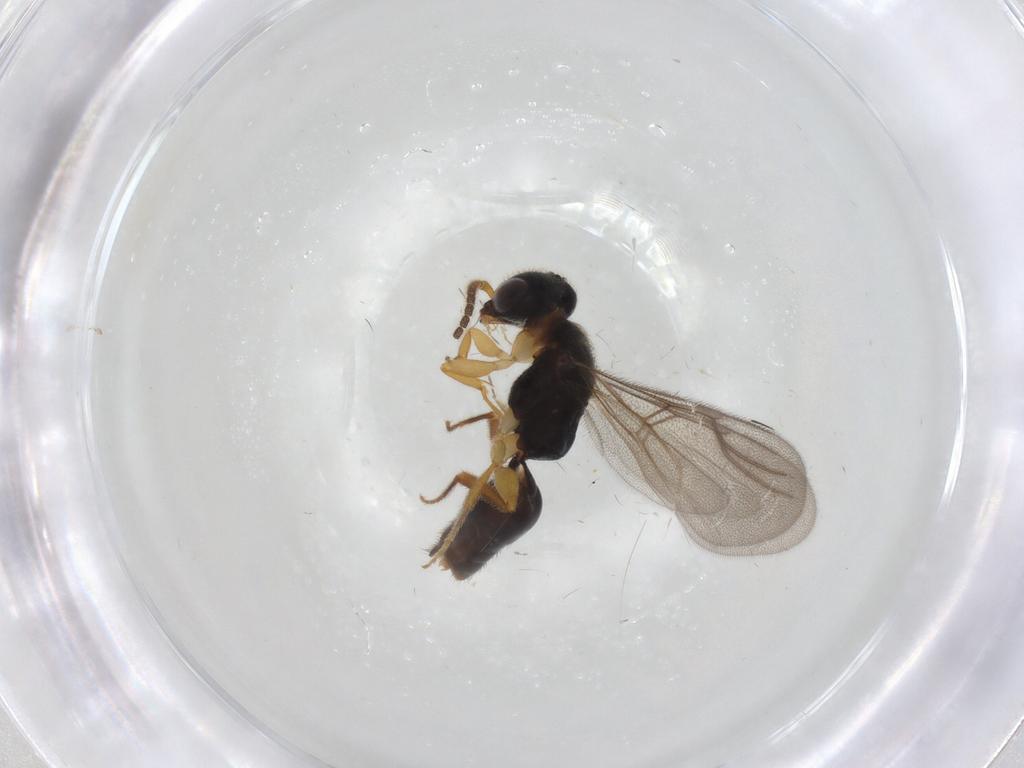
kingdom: Animalia
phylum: Arthropoda
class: Insecta
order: Hymenoptera
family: Bethylidae
